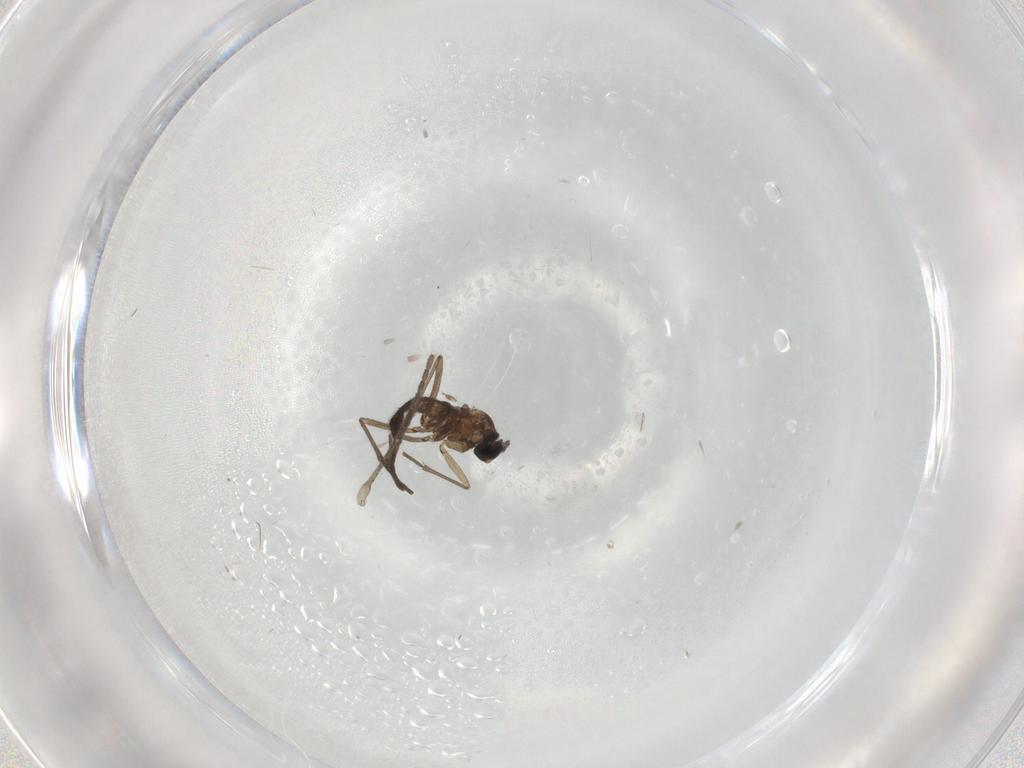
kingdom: Animalia
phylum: Arthropoda
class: Insecta
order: Diptera
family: Sciaridae
